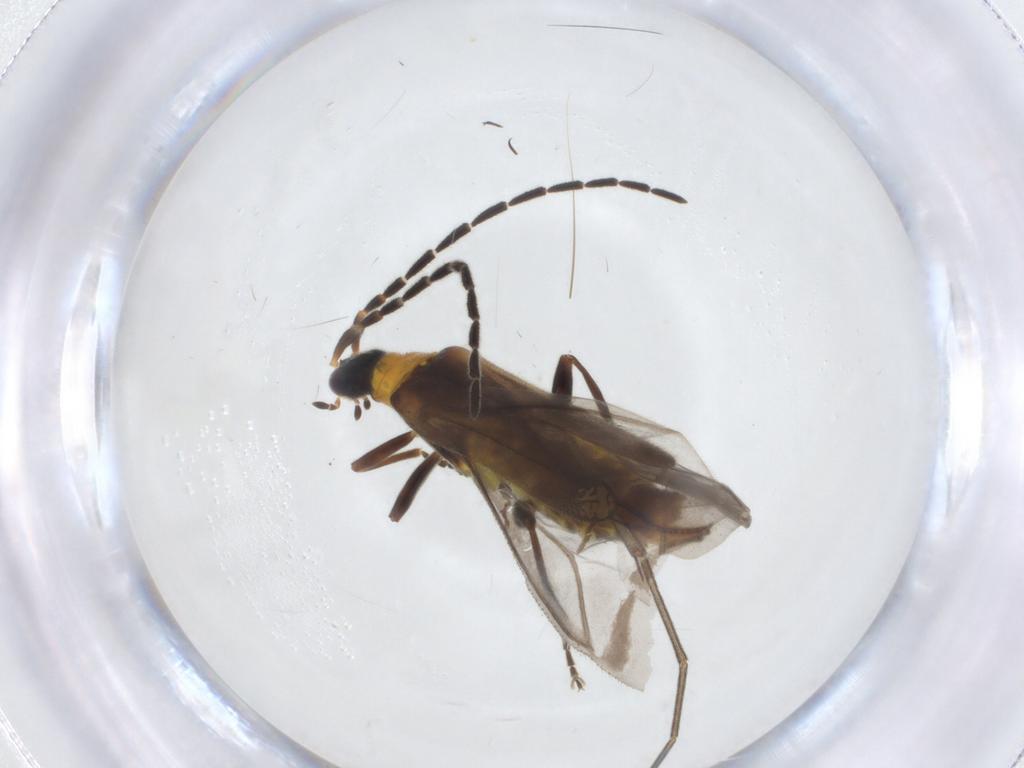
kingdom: Animalia
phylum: Arthropoda
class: Insecta
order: Coleoptera
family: Cantharidae
